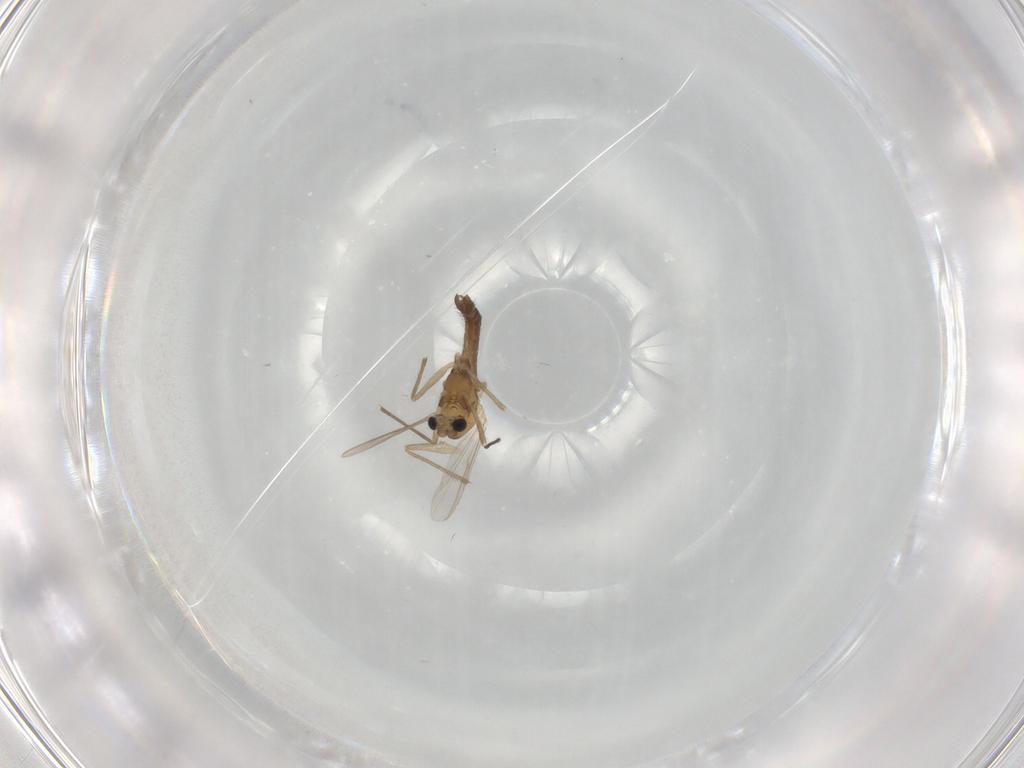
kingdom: Animalia
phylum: Arthropoda
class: Insecta
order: Diptera
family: Chironomidae
